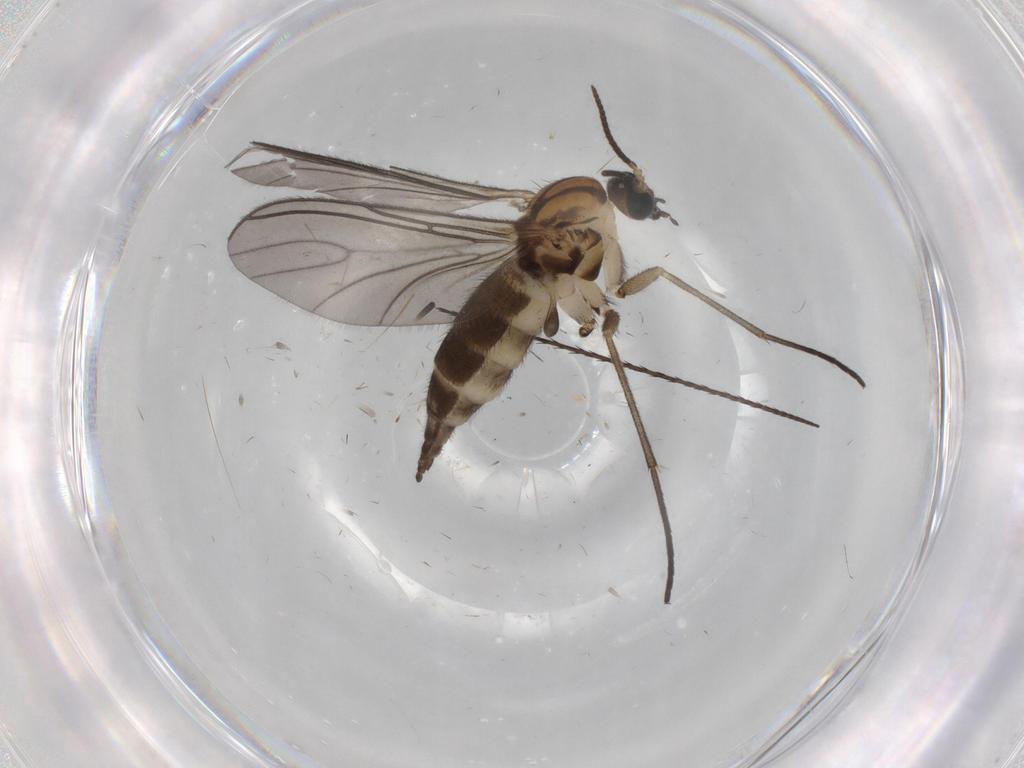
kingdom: Animalia
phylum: Arthropoda
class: Insecta
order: Diptera
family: Sciaridae
